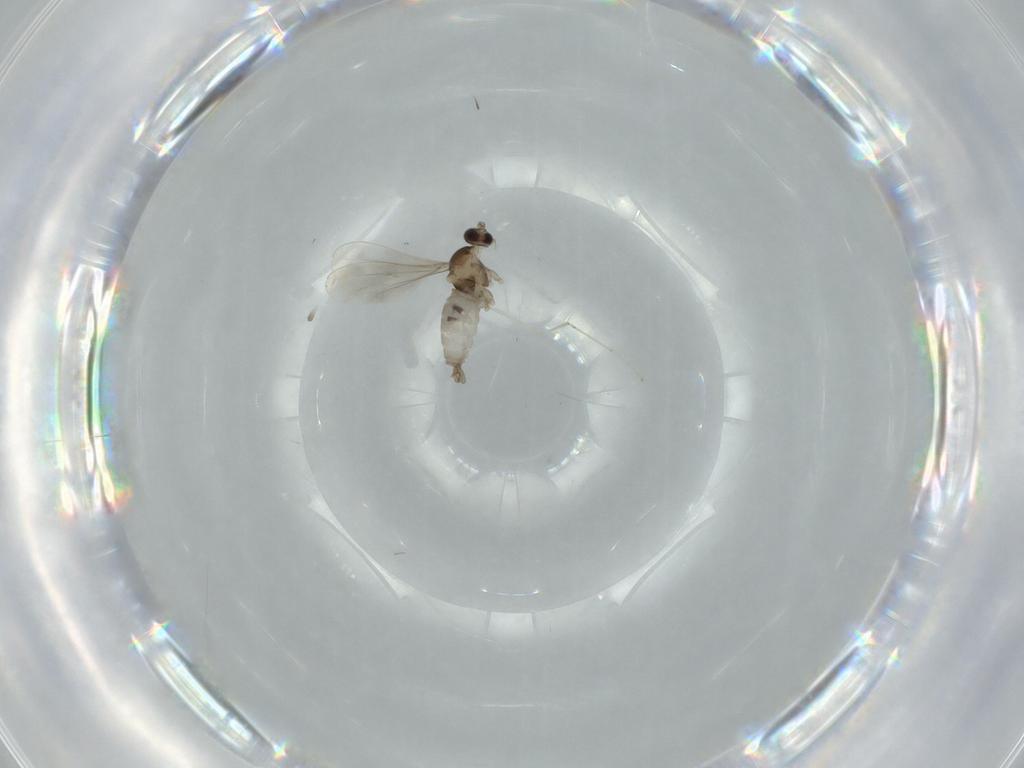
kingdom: Animalia
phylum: Arthropoda
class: Insecta
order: Diptera
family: Cecidomyiidae
